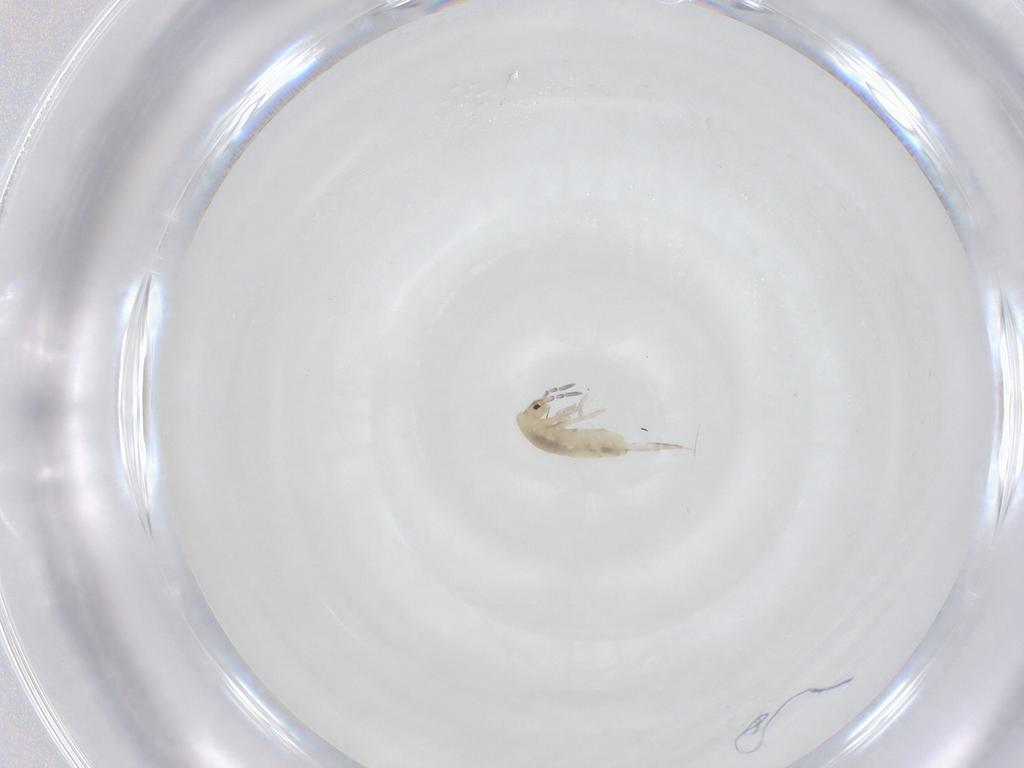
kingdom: Animalia
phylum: Arthropoda
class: Collembola
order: Entomobryomorpha
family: Entomobryidae
